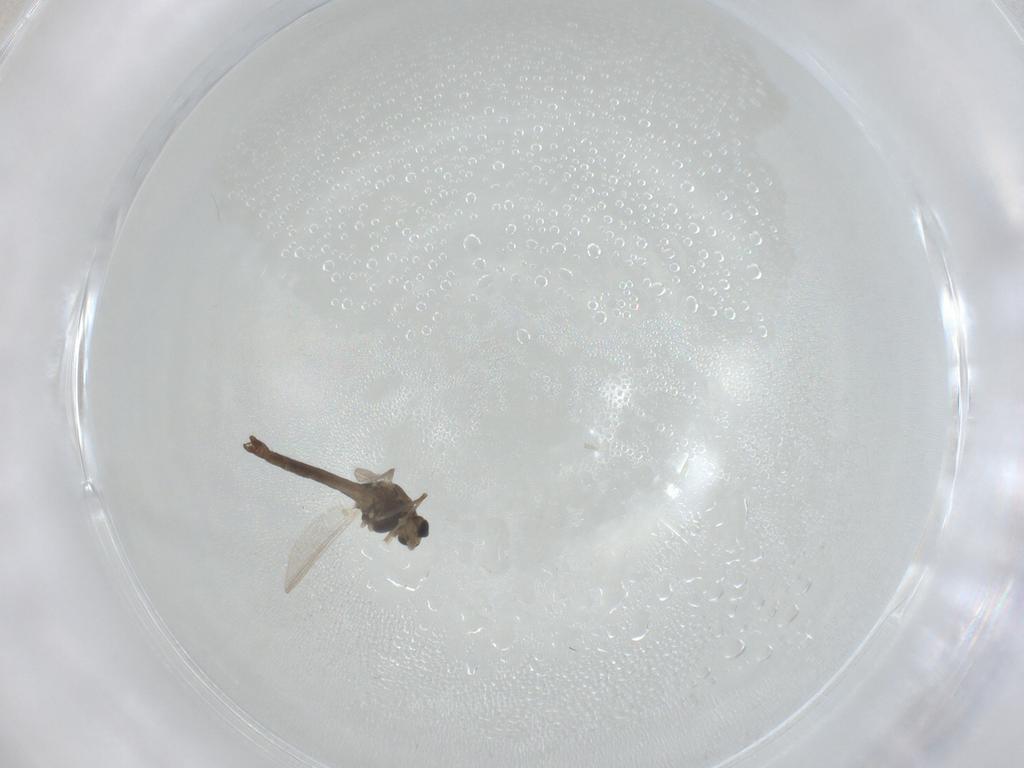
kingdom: Animalia
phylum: Arthropoda
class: Insecta
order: Diptera
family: Chironomidae
